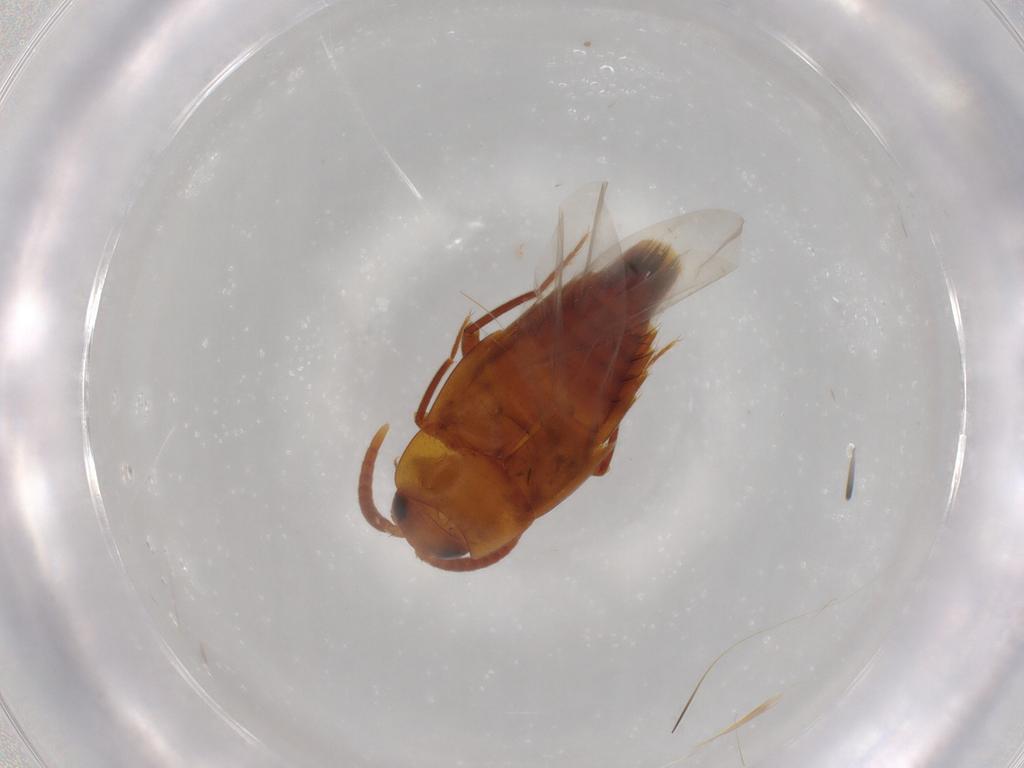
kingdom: Animalia
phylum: Arthropoda
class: Insecta
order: Coleoptera
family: Staphylinidae
